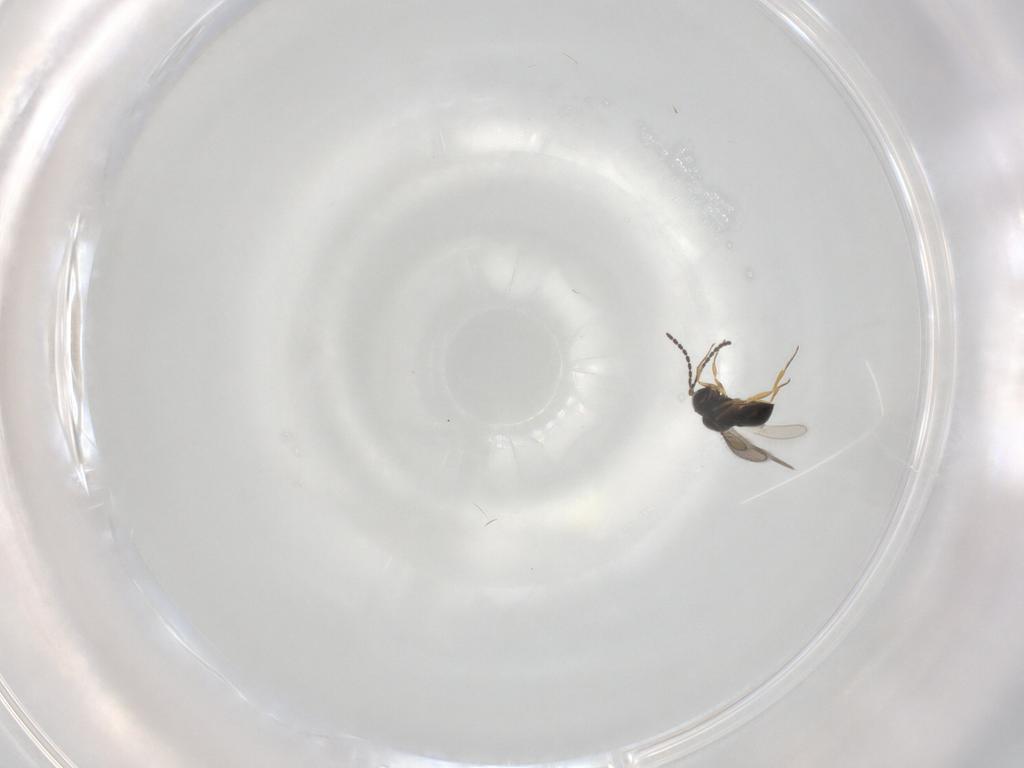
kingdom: Animalia
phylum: Arthropoda
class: Insecta
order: Hymenoptera
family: Scelionidae
